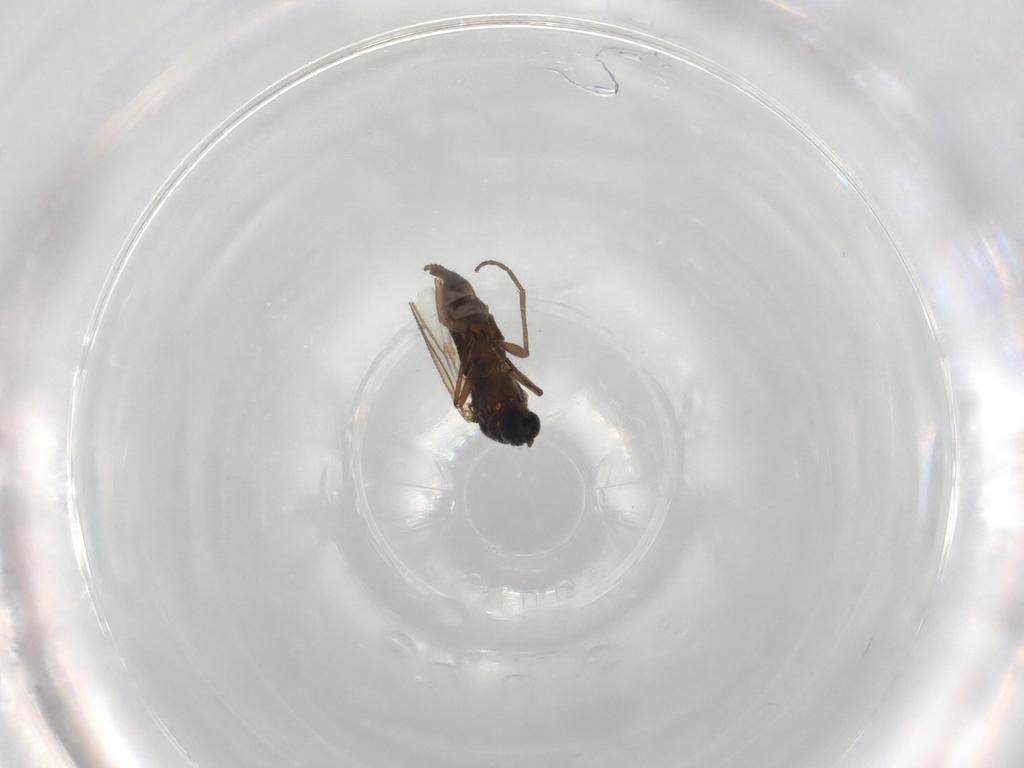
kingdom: Animalia
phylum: Arthropoda
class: Insecta
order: Diptera
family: Sciaridae
